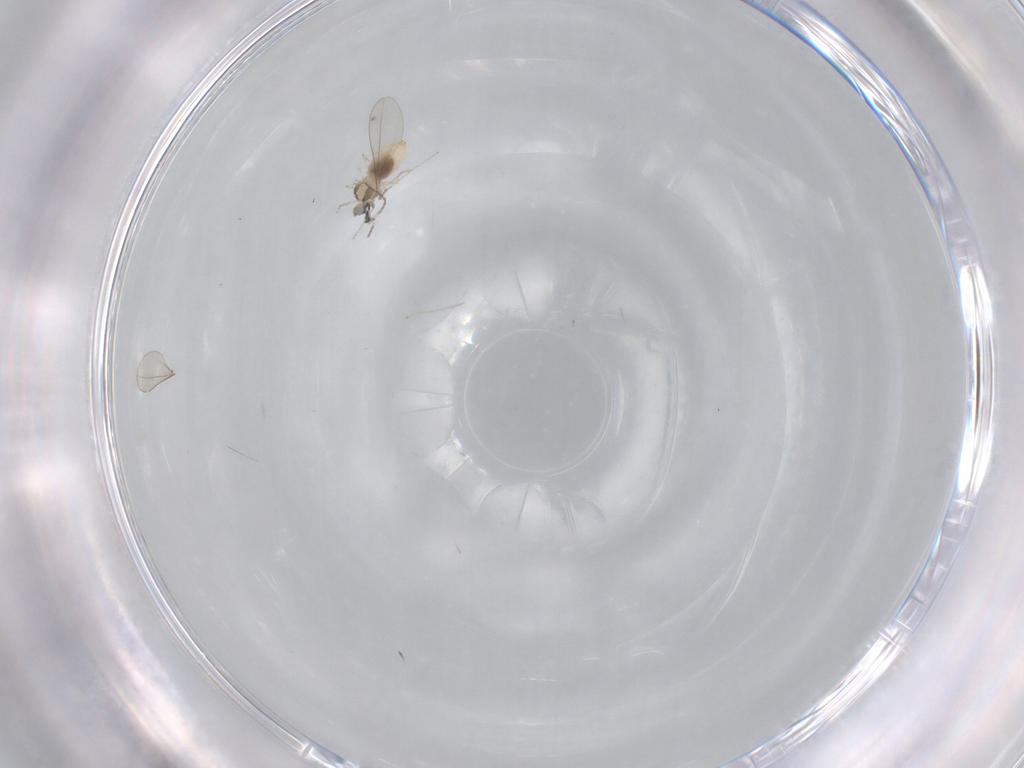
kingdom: Animalia
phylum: Arthropoda
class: Insecta
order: Diptera
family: Cecidomyiidae
